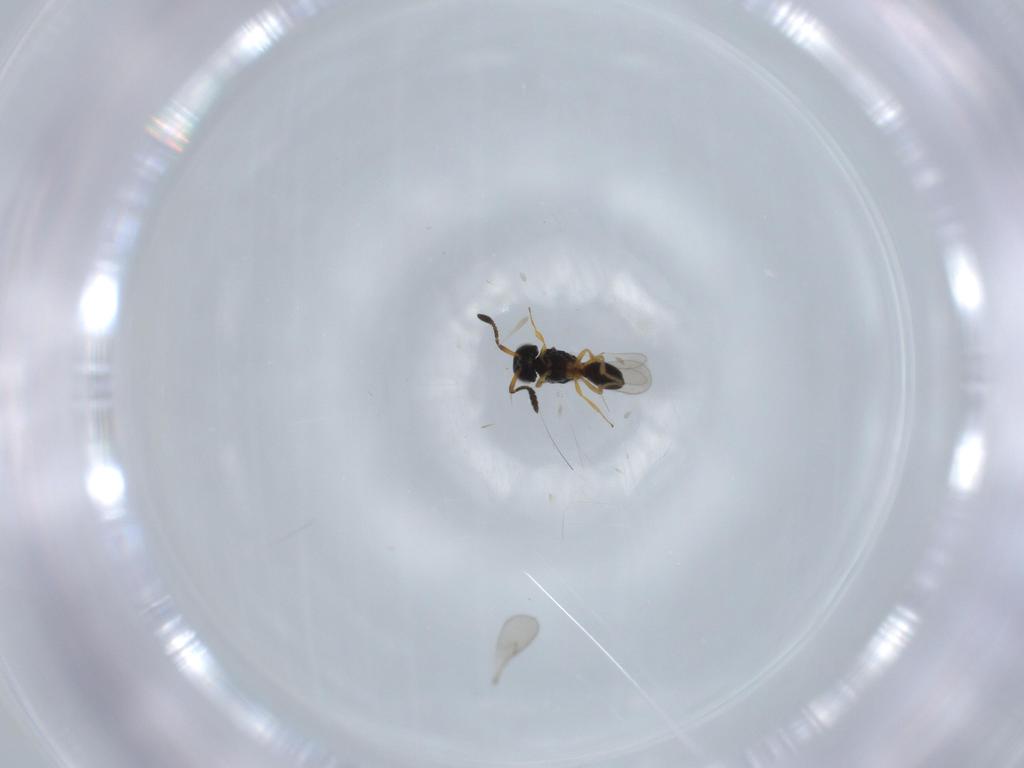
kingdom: Animalia
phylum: Arthropoda
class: Insecta
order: Hymenoptera
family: Scelionidae
